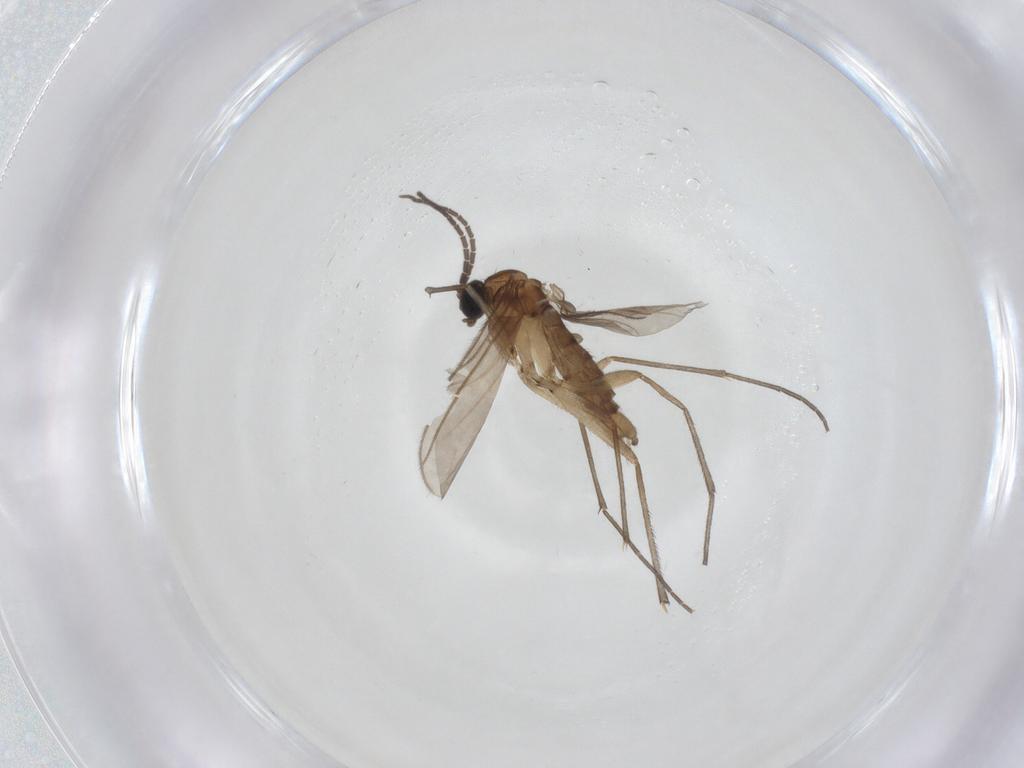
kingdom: Animalia
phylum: Arthropoda
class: Insecta
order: Diptera
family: Sciaridae
